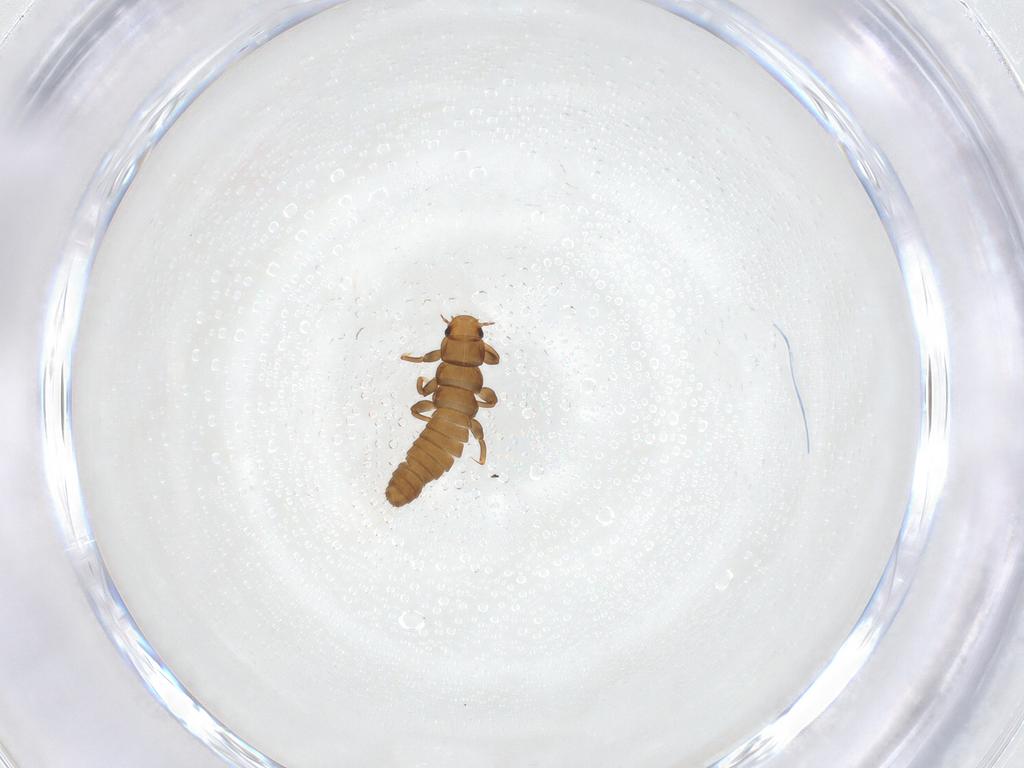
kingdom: Animalia
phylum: Arthropoda
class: Insecta
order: Coleoptera
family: Meloidae
